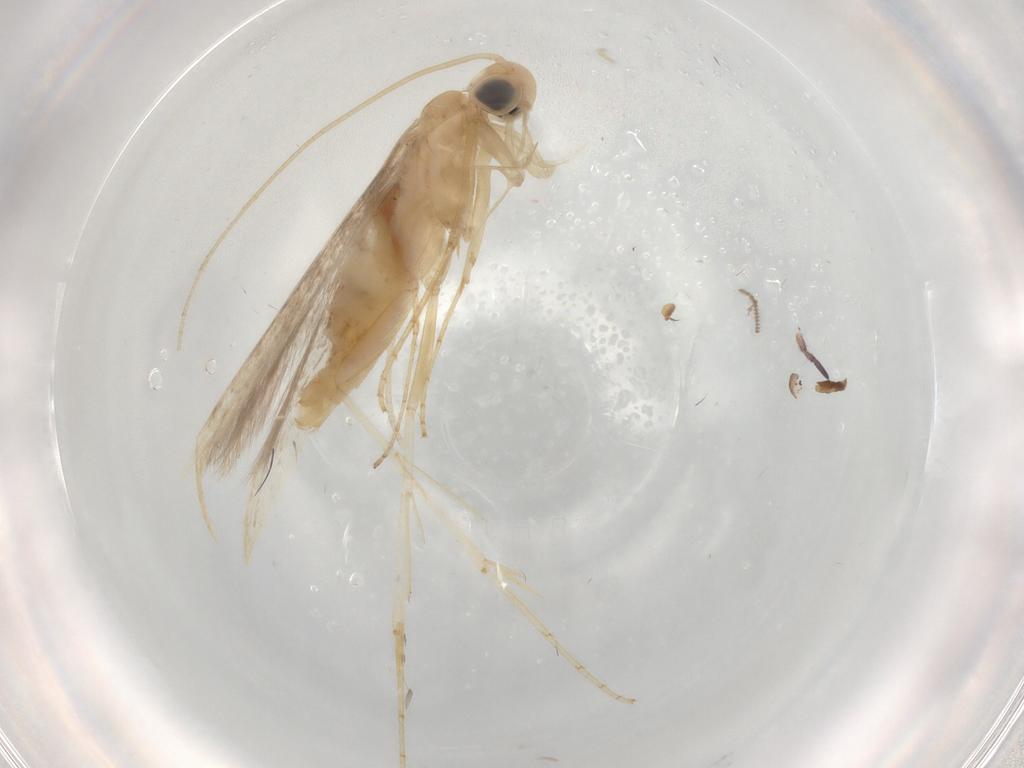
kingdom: Animalia
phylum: Arthropoda
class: Insecta
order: Lepidoptera
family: Batrachedridae
